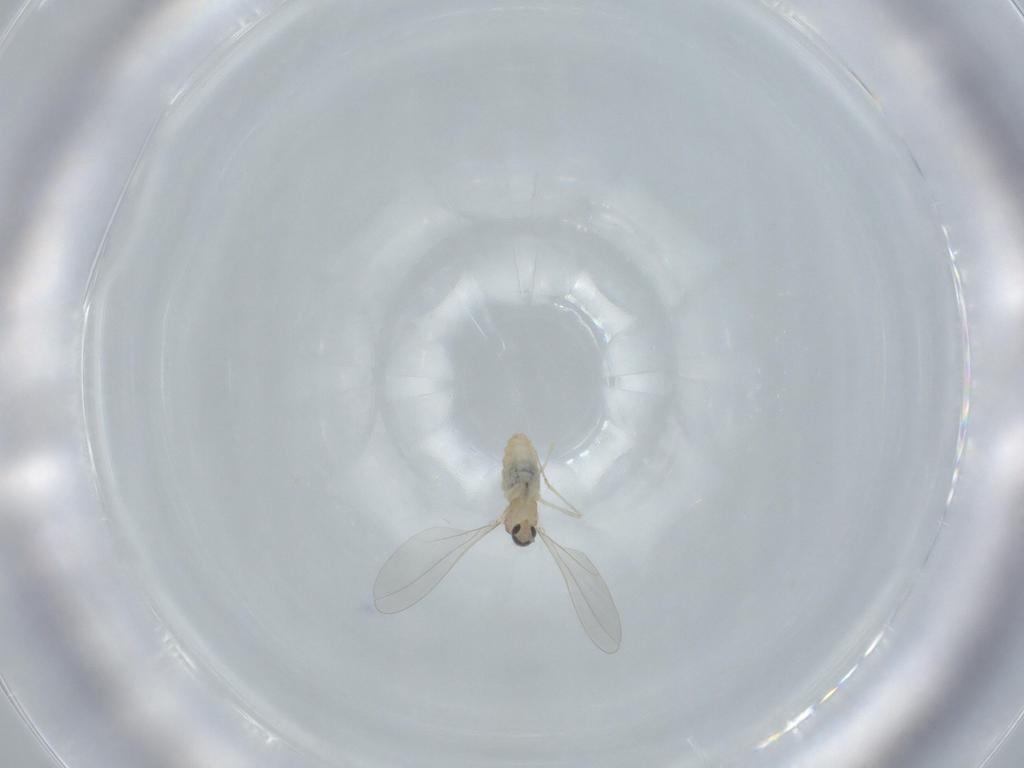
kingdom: Animalia
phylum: Arthropoda
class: Insecta
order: Diptera
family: Cecidomyiidae
